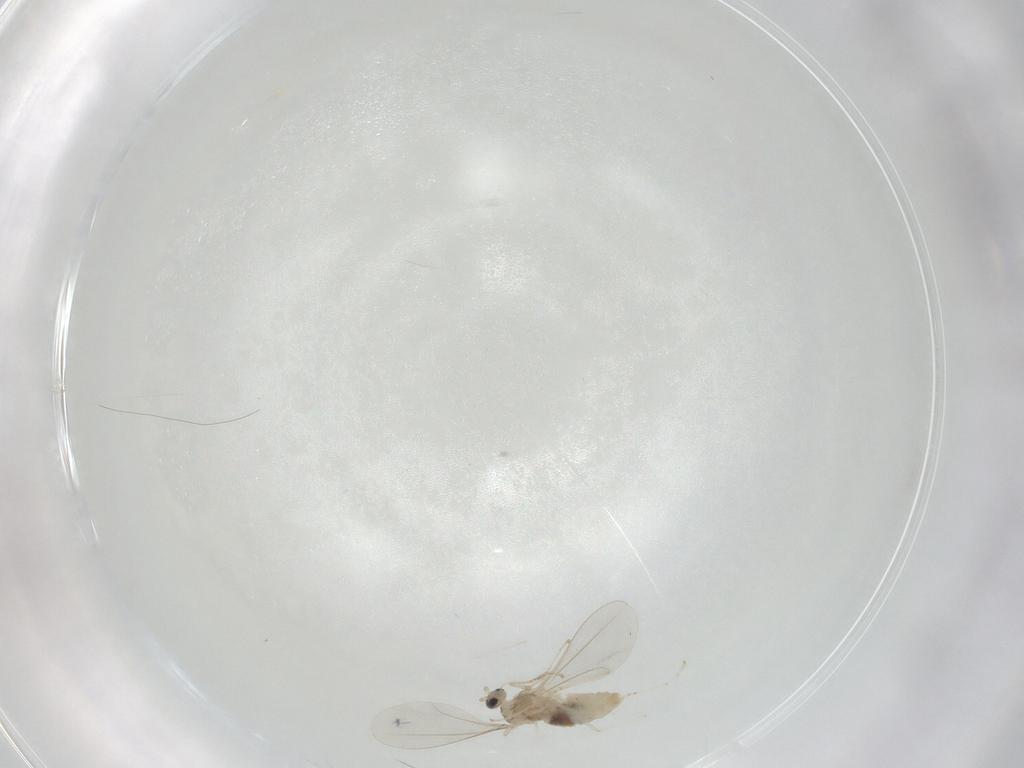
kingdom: Animalia
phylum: Arthropoda
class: Insecta
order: Diptera
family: Cecidomyiidae
